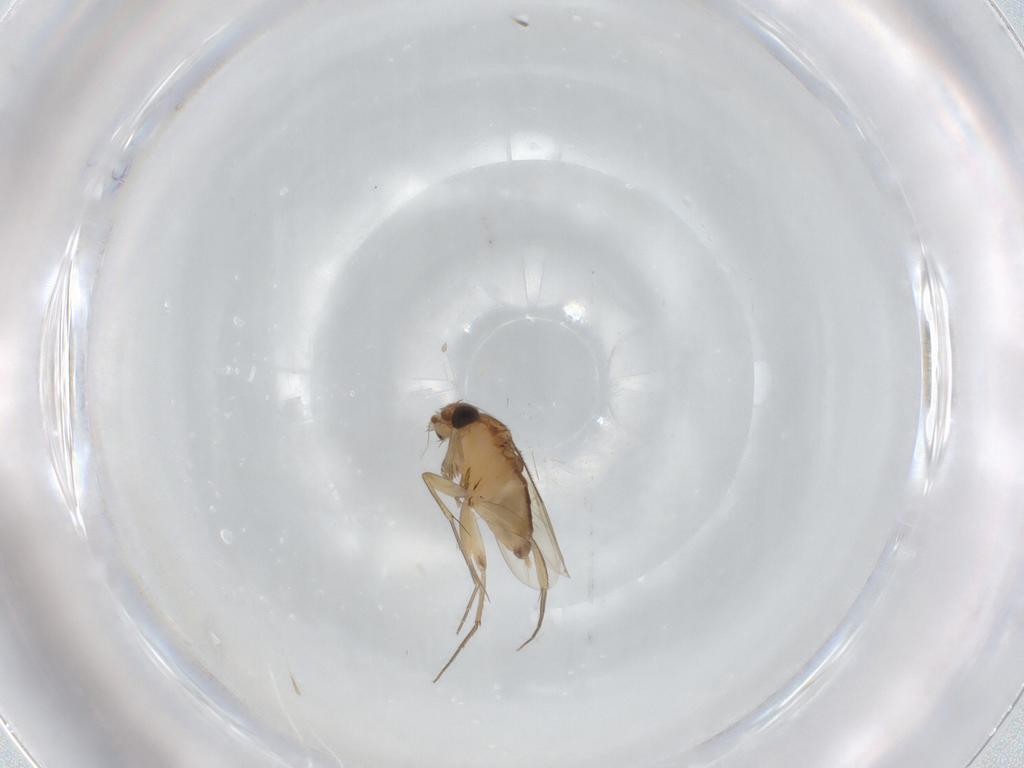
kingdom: Animalia
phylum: Arthropoda
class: Insecta
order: Diptera
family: Phoridae
